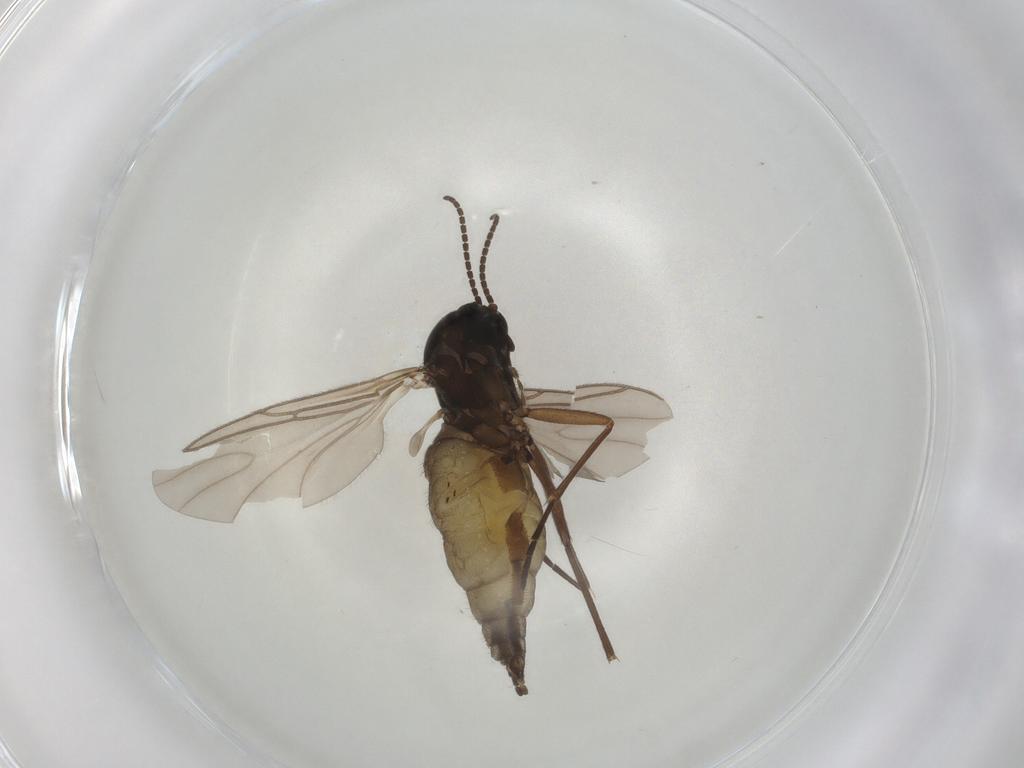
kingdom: Animalia
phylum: Arthropoda
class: Insecta
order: Diptera
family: Sciaridae
